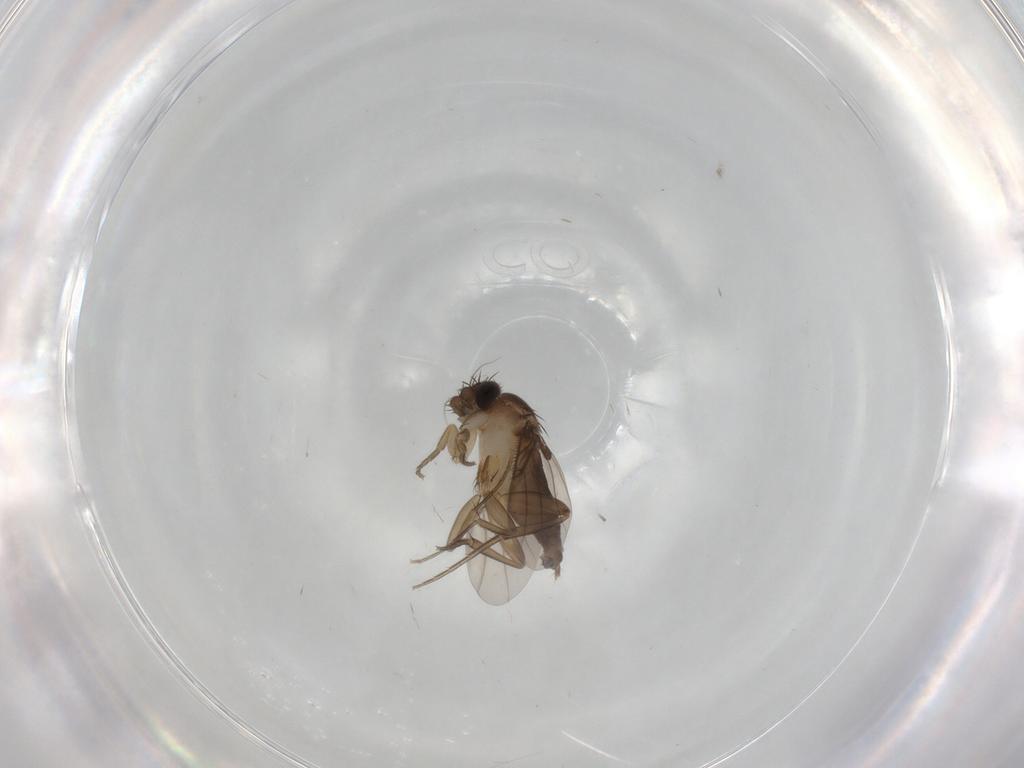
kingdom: Animalia
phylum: Arthropoda
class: Insecta
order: Diptera
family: Phoridae
